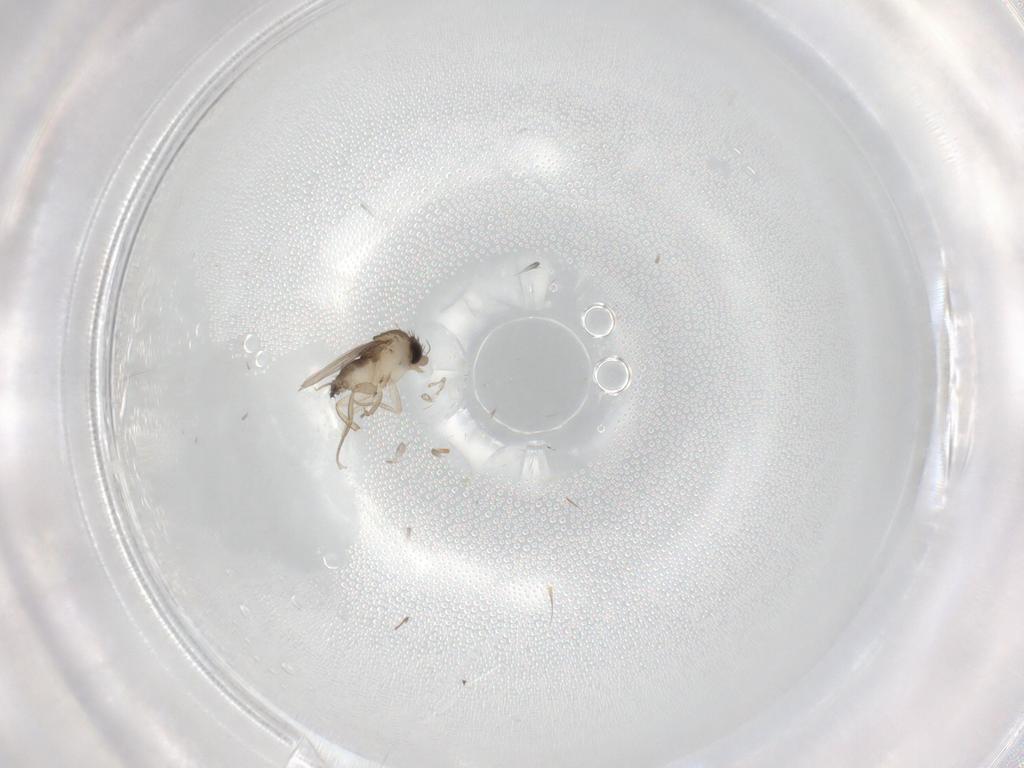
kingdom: Animalia
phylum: Arthropoda
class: Insecta
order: Diptera
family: Phoridae
